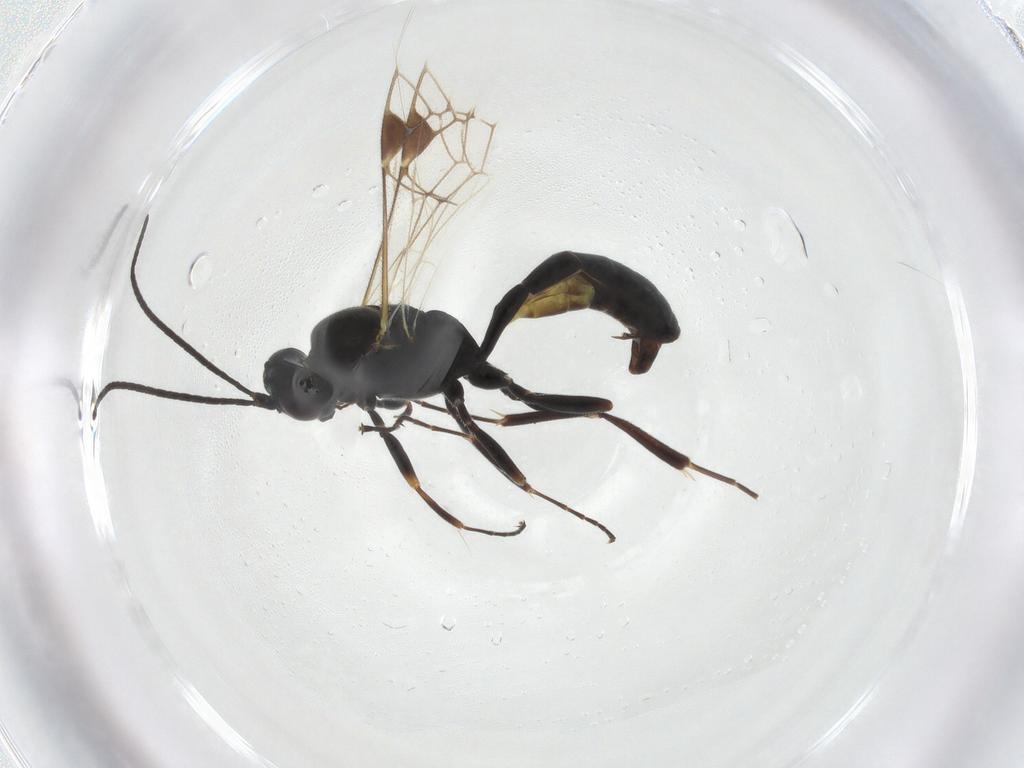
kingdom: Animalia
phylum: Arthropoda
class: Insecta
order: Hymenoptera
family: Ichneumonidae
